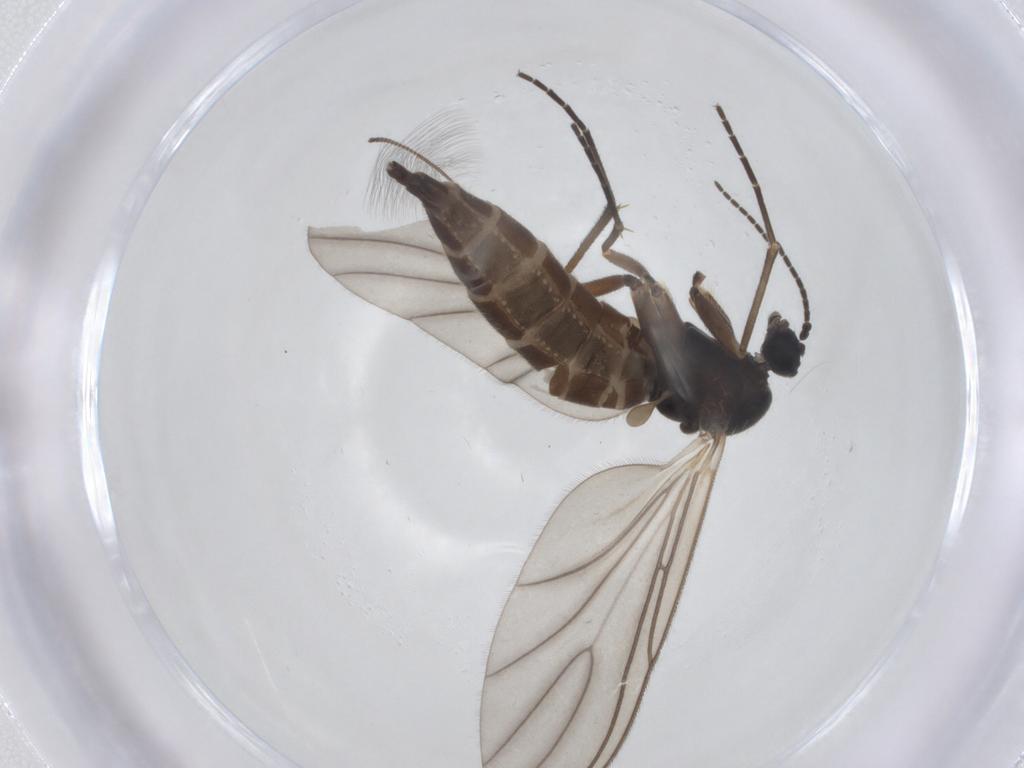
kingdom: Animalia
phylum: Arthropoda
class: Insecta
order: Diptera
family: Sciaridae
